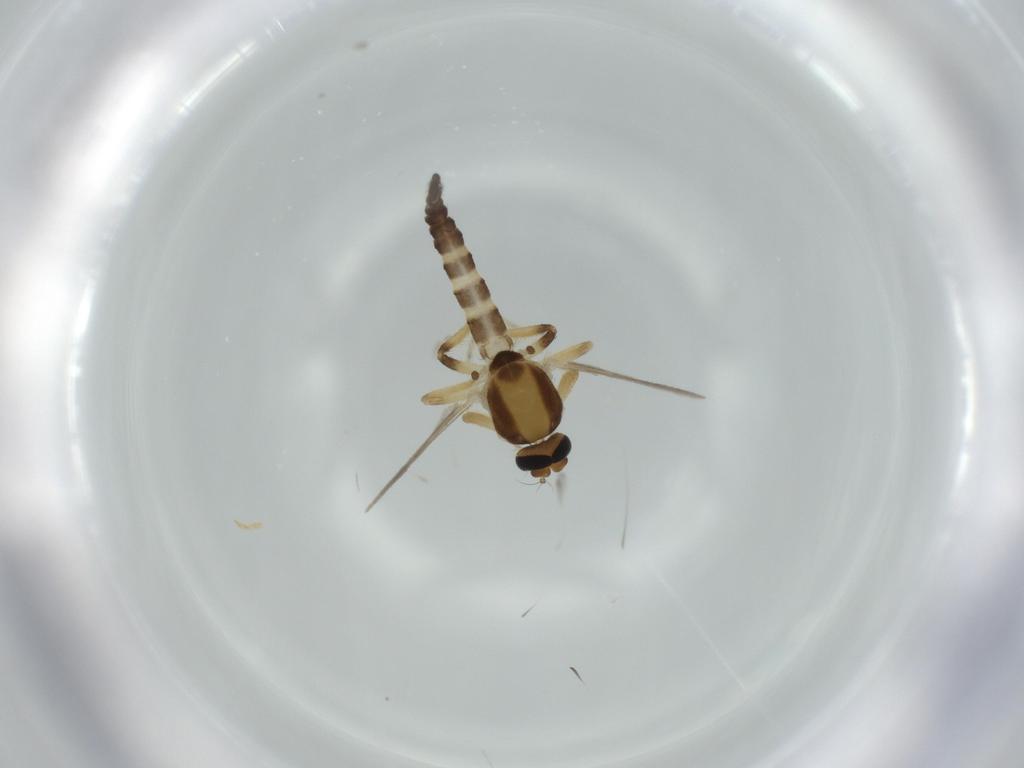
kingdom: Animalia
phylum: Arthropoda
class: Insecta
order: Diptera
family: Ceratopogonidae
